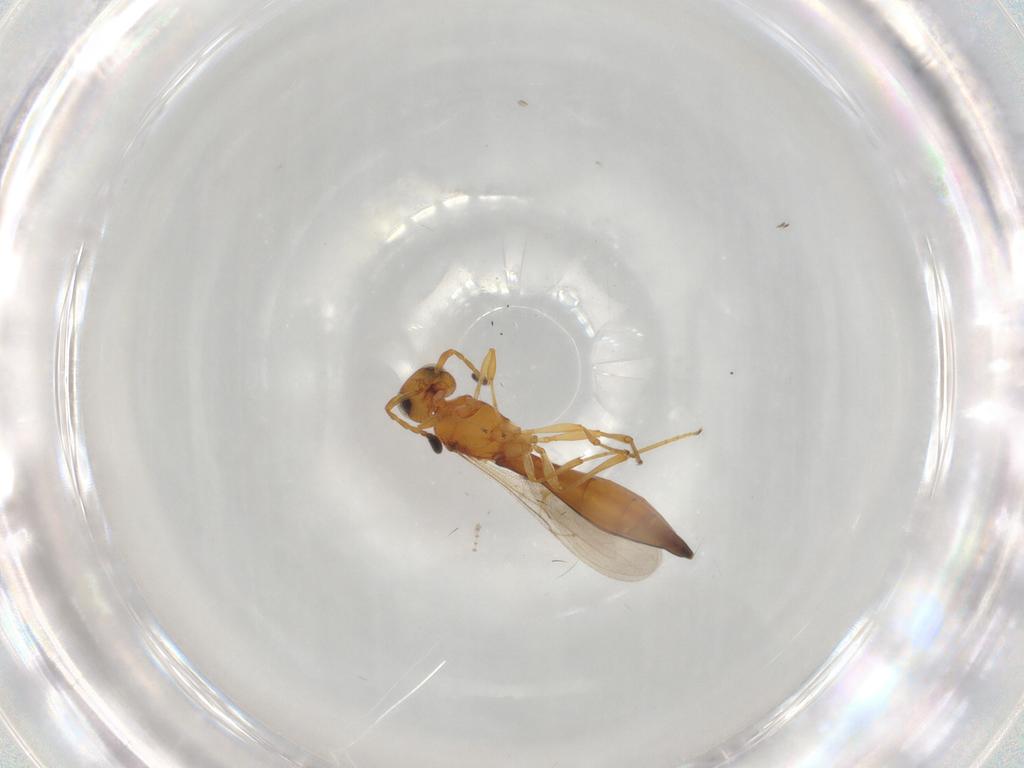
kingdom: Animalia
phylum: Arthropoda
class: Insecta
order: Hymenoptera
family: Scelionidae
